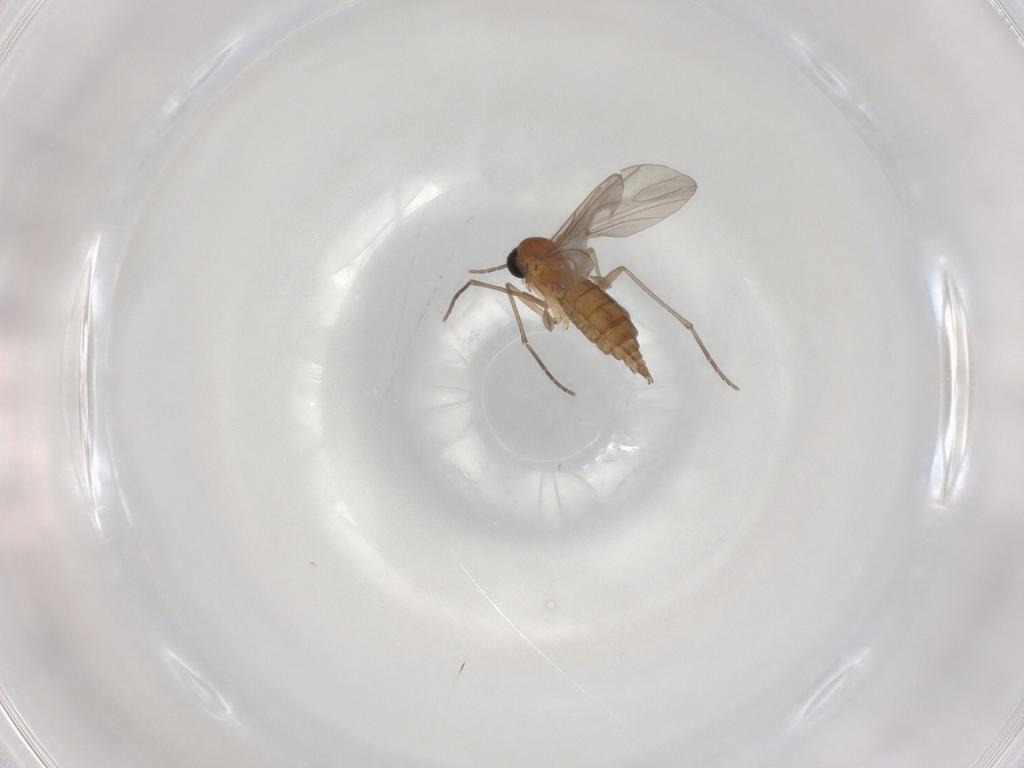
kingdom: Animalia
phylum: Arthropoda
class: Insecta
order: Diptera
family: Sciaridae
